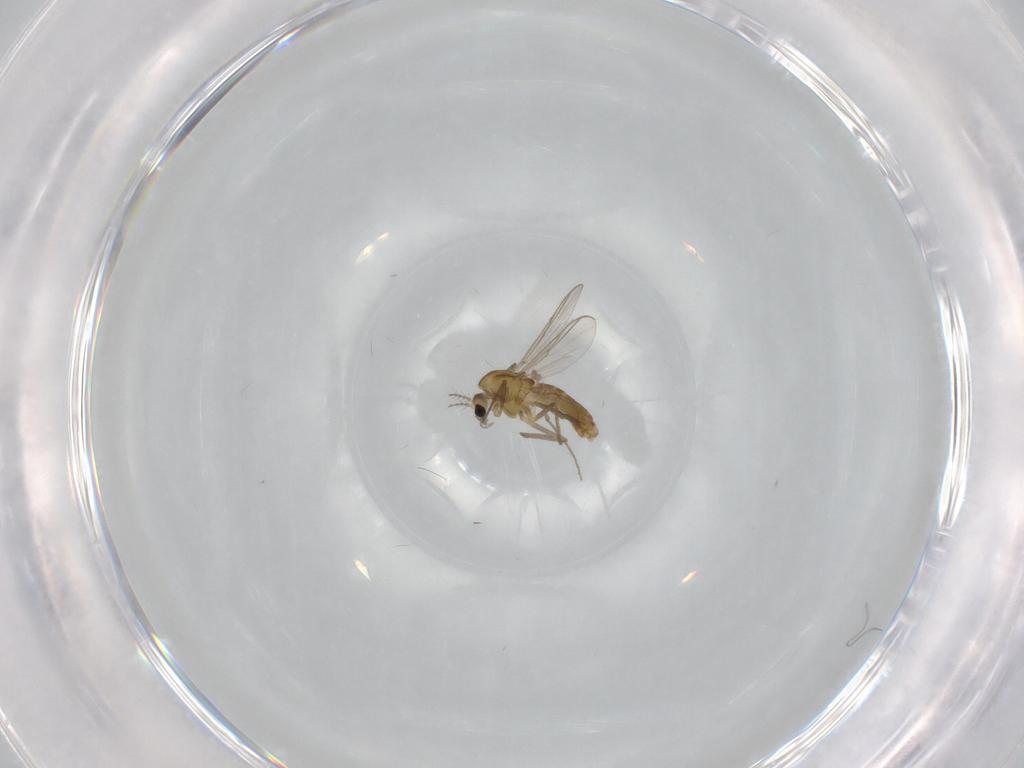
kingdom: Animalia
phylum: Arthropoda
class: Insecta
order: Diptera
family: Chironomidae
